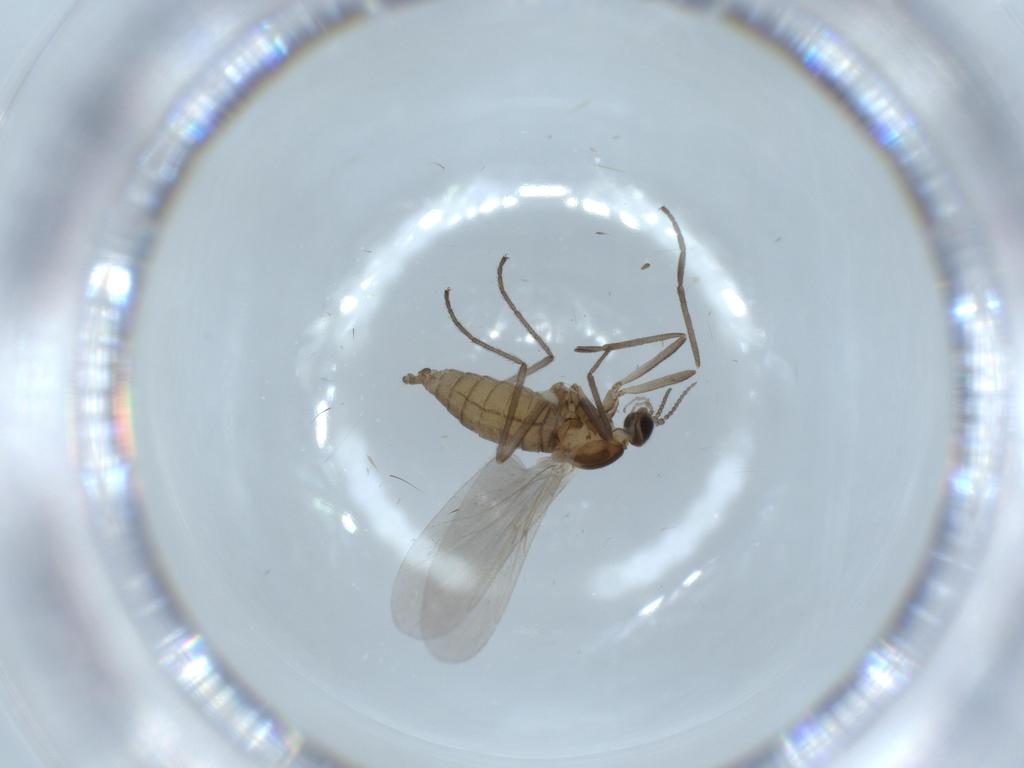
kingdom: Animalia
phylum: Arthropoda
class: Insecta
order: Diptera
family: Cecidomyiidae
